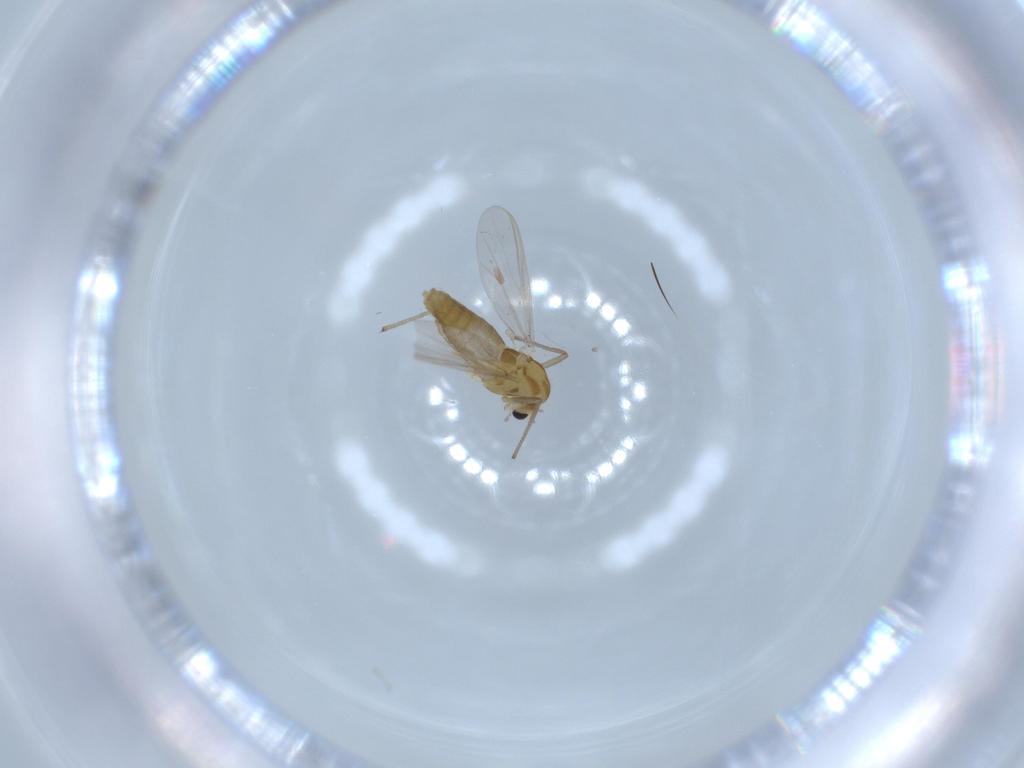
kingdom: Animalia
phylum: Arthropoda
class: Insecta
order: Diptera
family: Chironomidae
